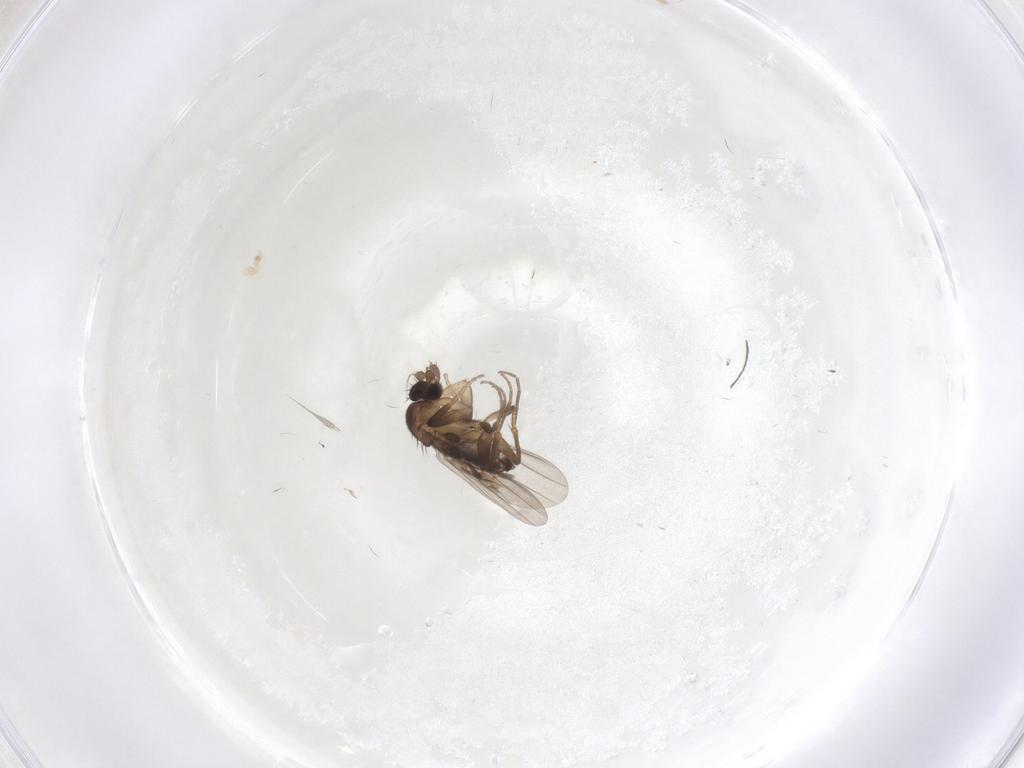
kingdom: Animalia
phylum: Arthropoda
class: Insecta
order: Diptera
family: Phoridae
